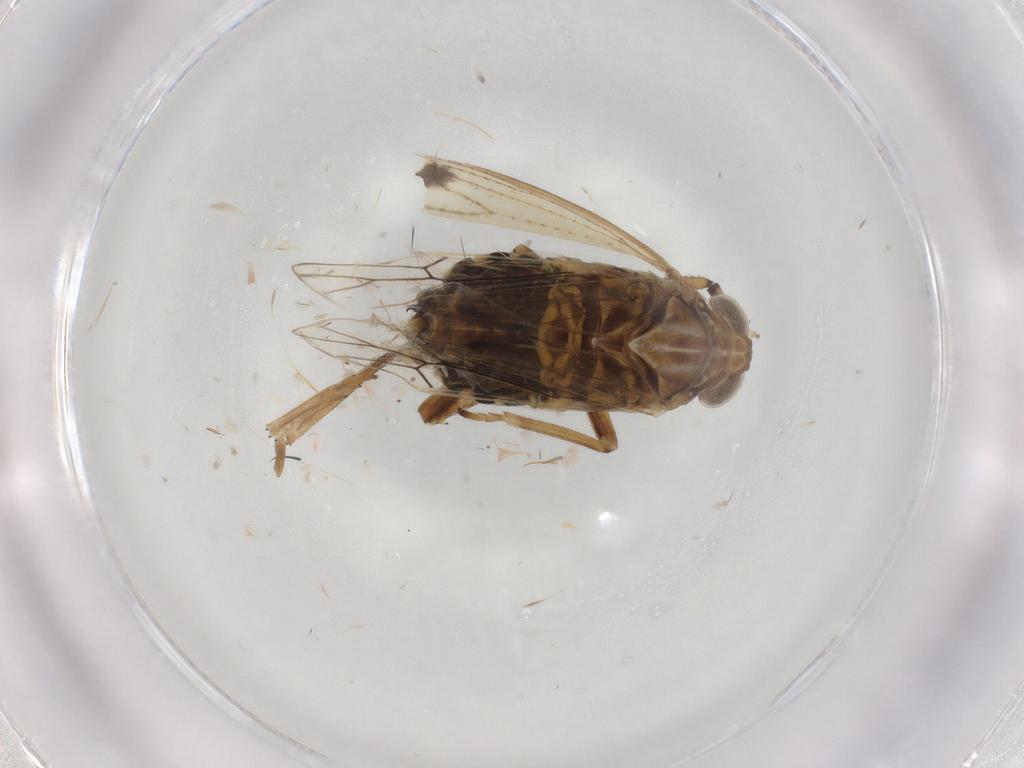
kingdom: Animalia
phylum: Arthropoda
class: Insecta
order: Hemiptera
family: Delphacidae
